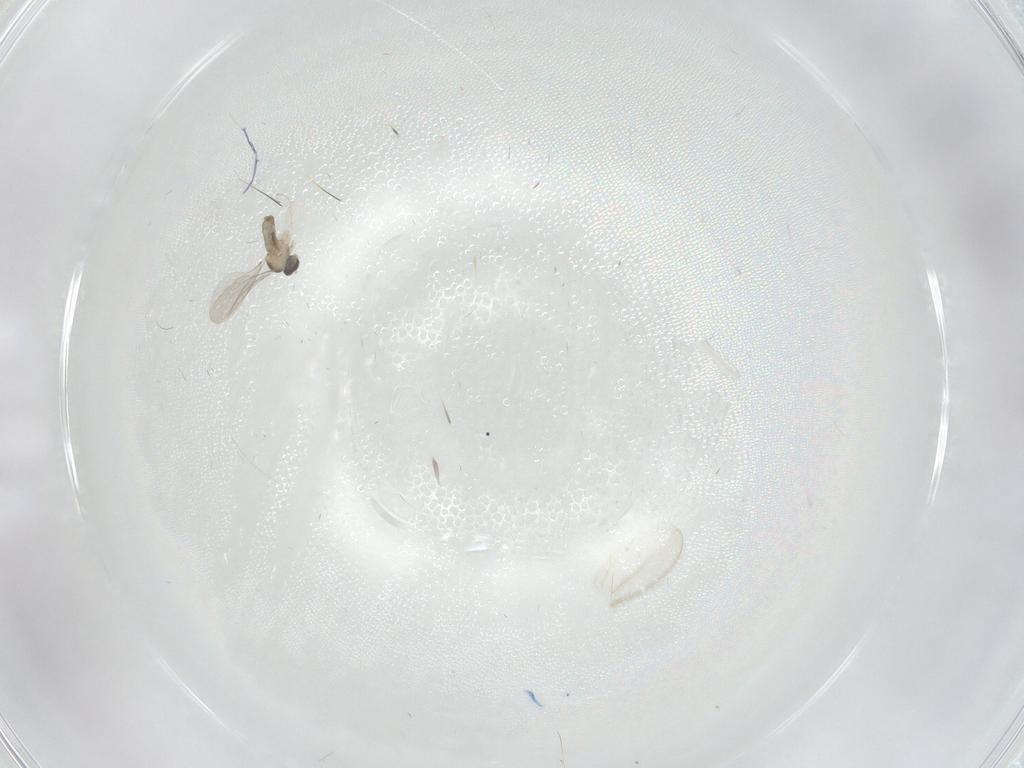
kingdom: Animalia
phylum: Arthropoda
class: Insecta
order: Diptera
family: Cecidomyiidae
